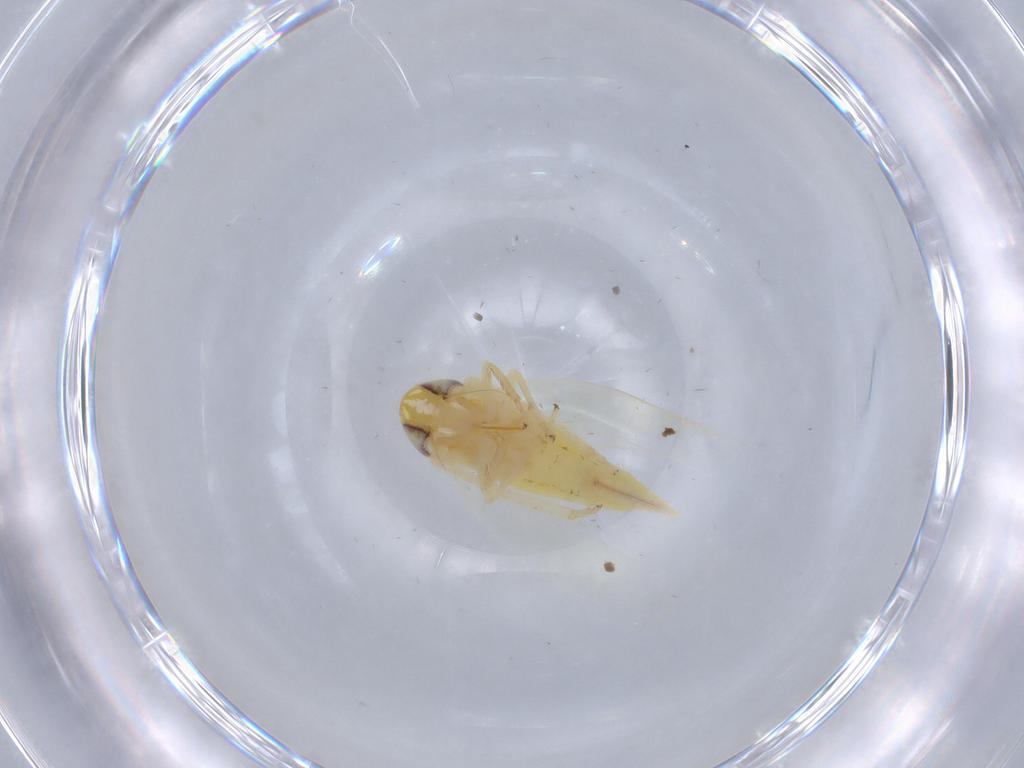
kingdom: Animalia
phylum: Arthropoda
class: Insecta
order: Hemiptera
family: Cicadellidae
